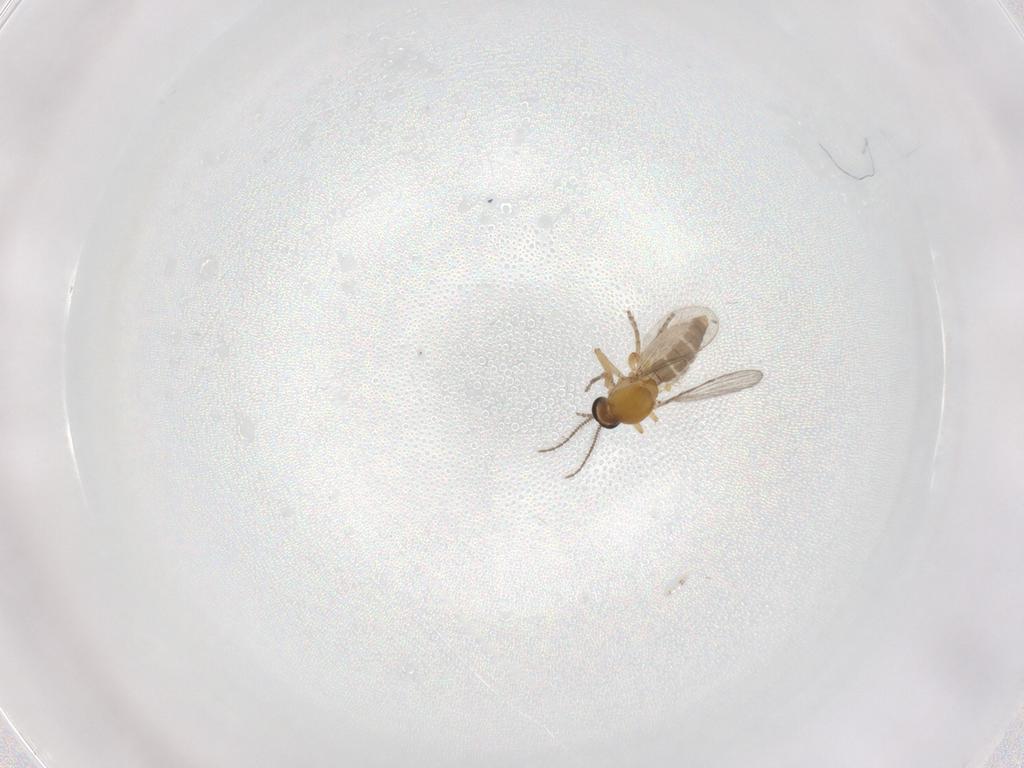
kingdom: Animalia
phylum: Arthropoda
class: Insecta
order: Diptera
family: Ceratopogonidae
